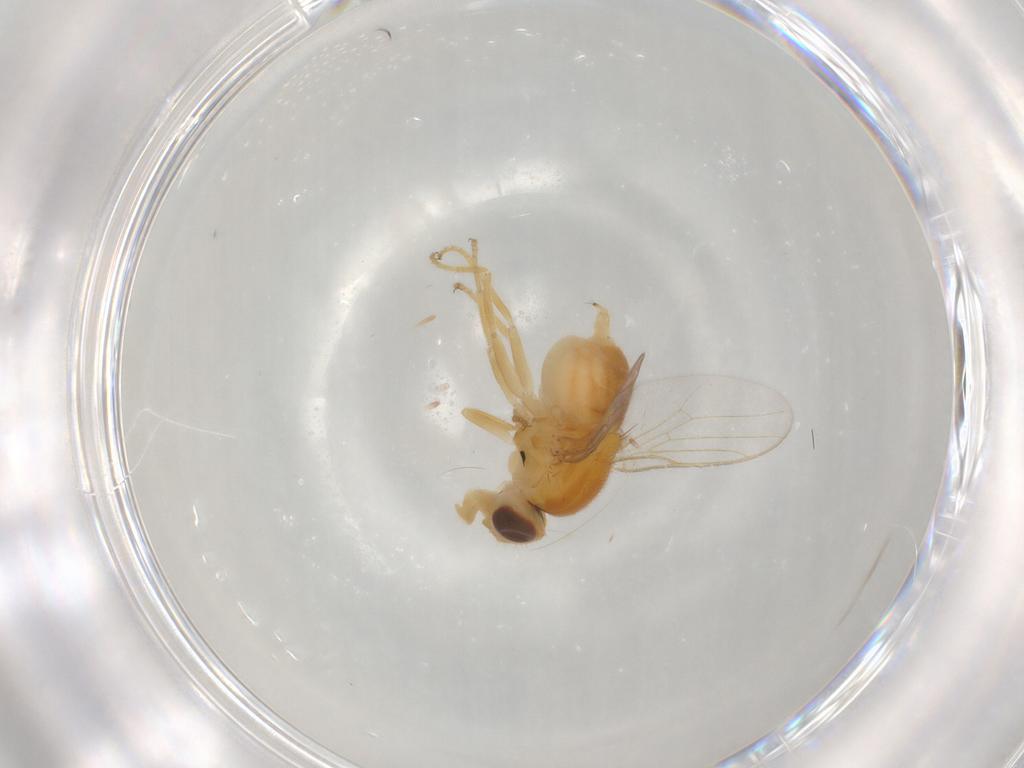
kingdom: Animalia
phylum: Arthropoda
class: Insecta
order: Diptera
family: Chloropidae
